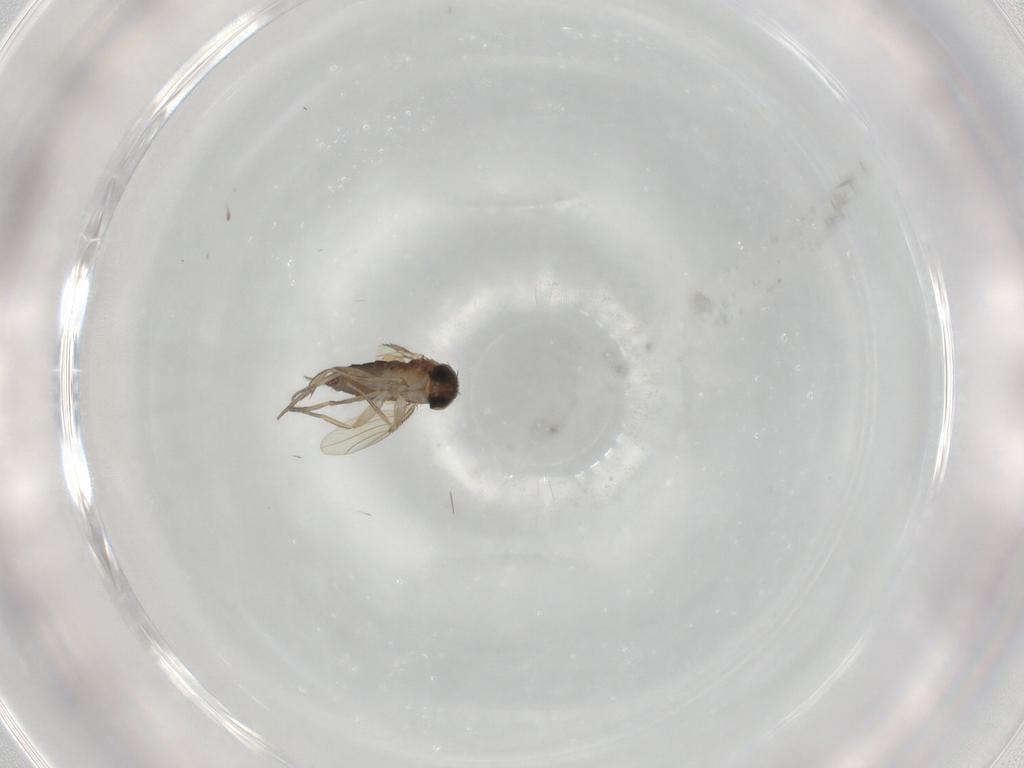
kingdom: Animalia
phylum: Arthropoda
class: Insecta
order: Diptera
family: Phoridae
